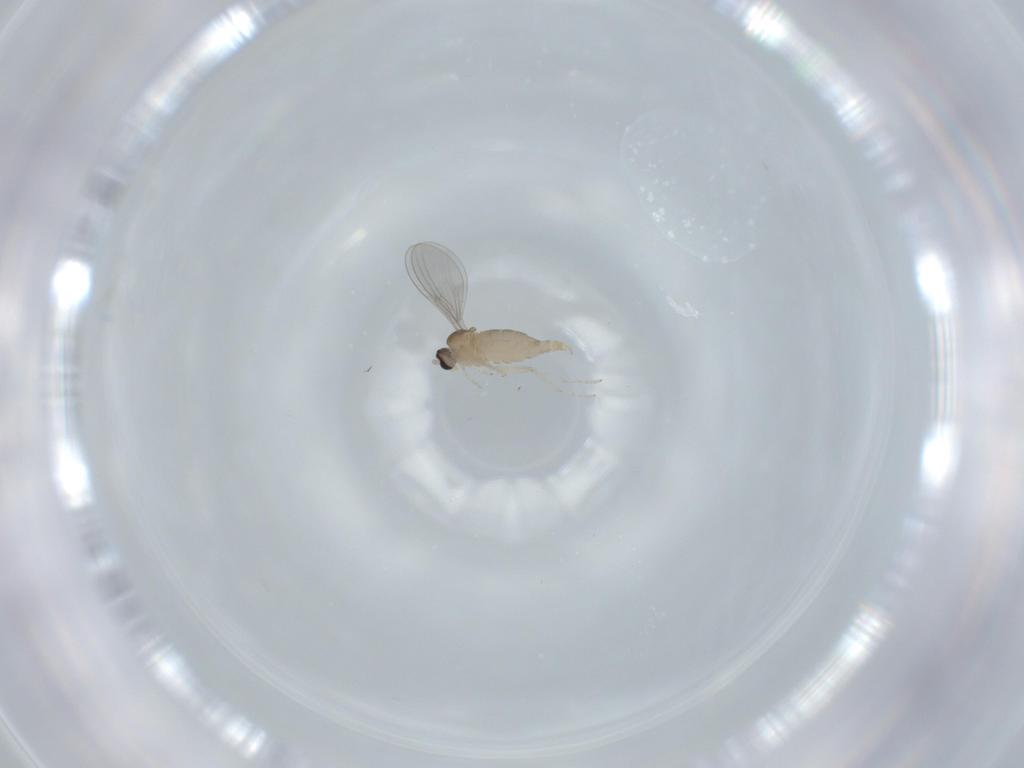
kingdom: Animalia
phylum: Arthropoda
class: Insecta
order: Diptera
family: Cecidomyiidae
